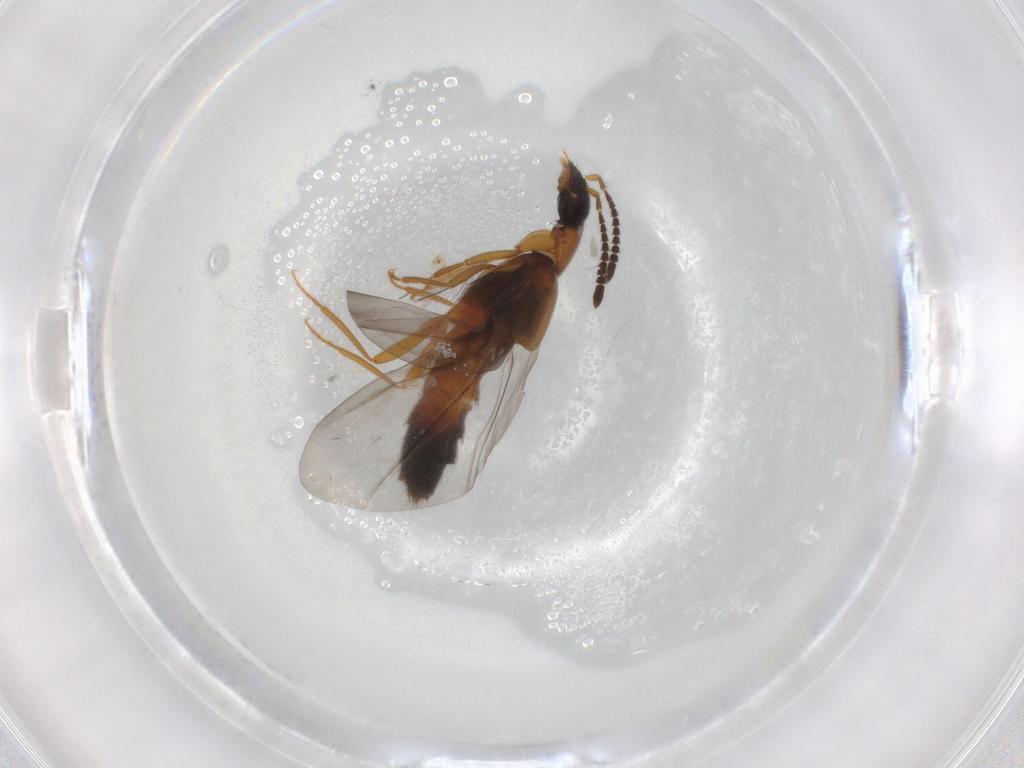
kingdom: Animalia
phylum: Arthropoda
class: Insecta
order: Coleoptera
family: Staphylinidae
